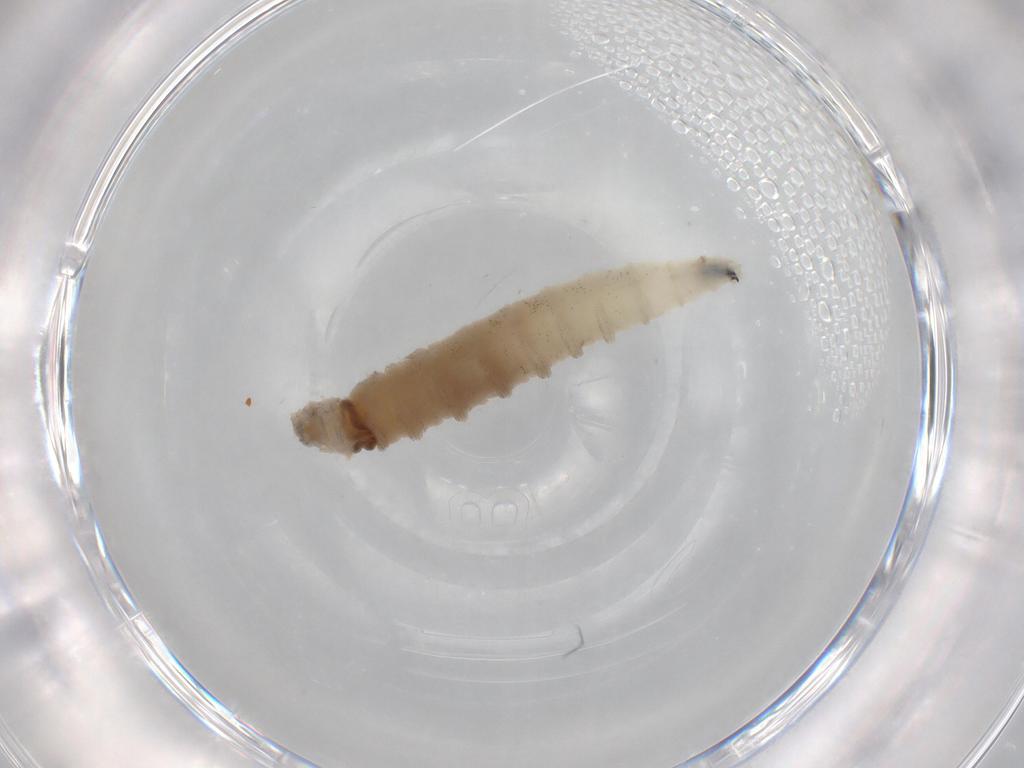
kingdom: Animalia
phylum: Arthropoda
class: Insecta
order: Diptera
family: Drosophilidae
